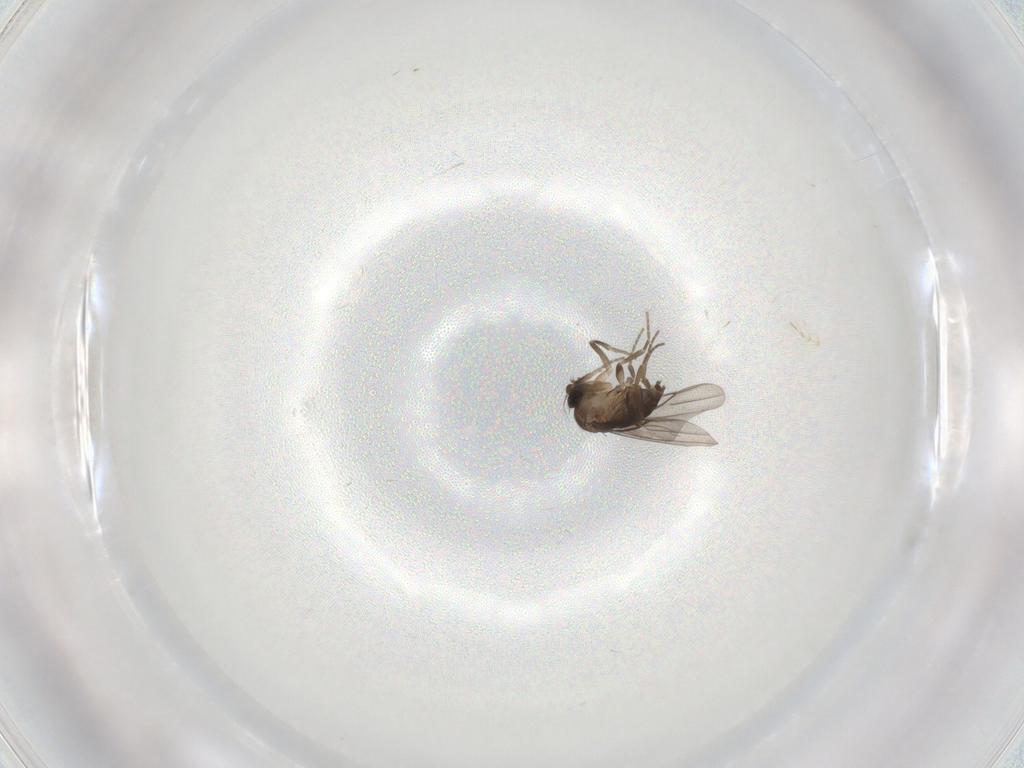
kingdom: Animalia
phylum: Arthropoda
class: Insecta
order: Diptera
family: Phoridae
